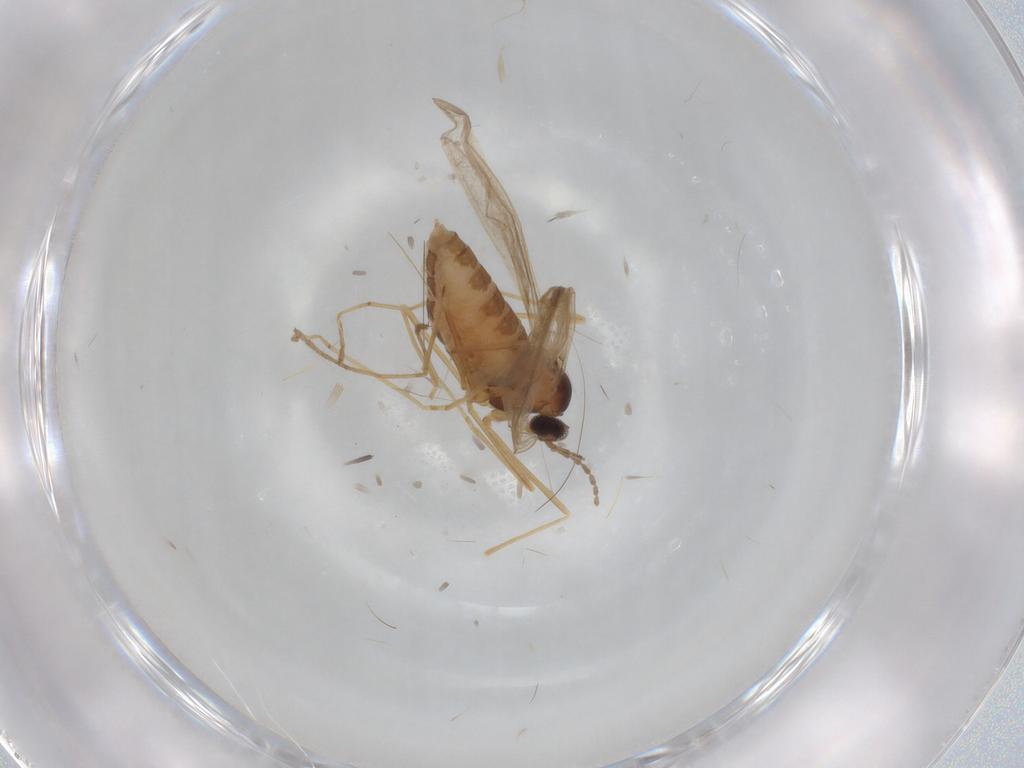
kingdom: Animalia
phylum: Arthropoda
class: Insecta
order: Diptera
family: Cecidomyiidae
